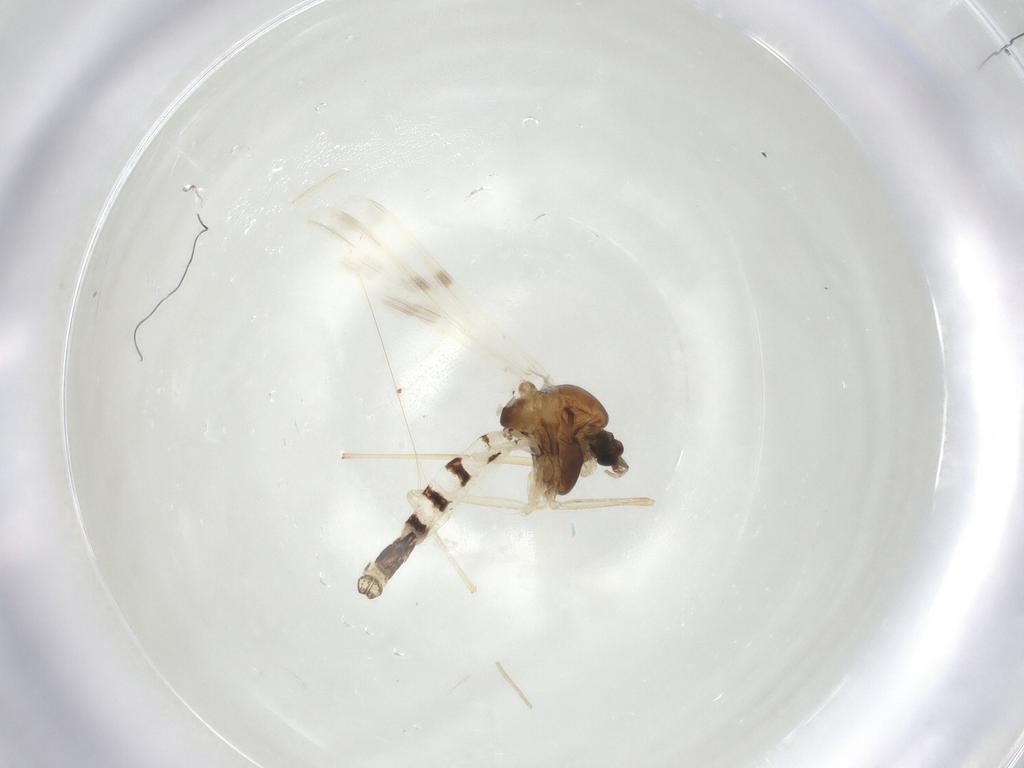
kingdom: Animalia
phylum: Arthropoda
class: Insecta
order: Diptera
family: Chironomidae
